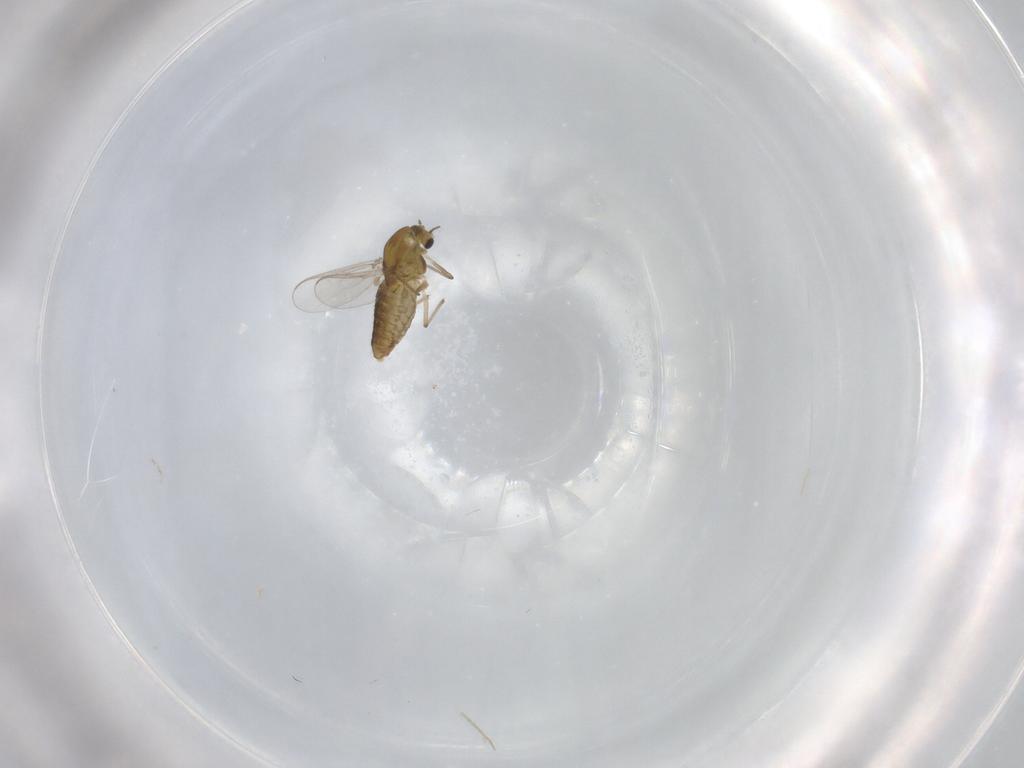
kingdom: Animalia
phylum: Arthropoda
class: Insecta
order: Diptera
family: Chironomidae
